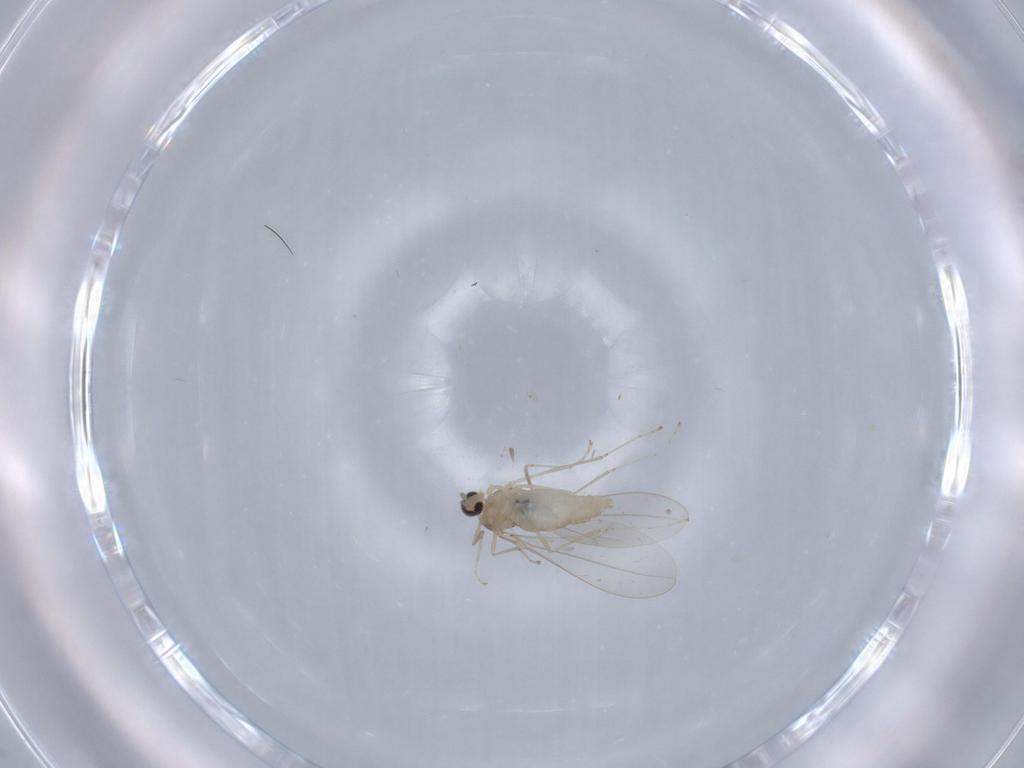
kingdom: Animalia
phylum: Arthropoda
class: Insecta
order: Diptera
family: Cecidomyiidae
